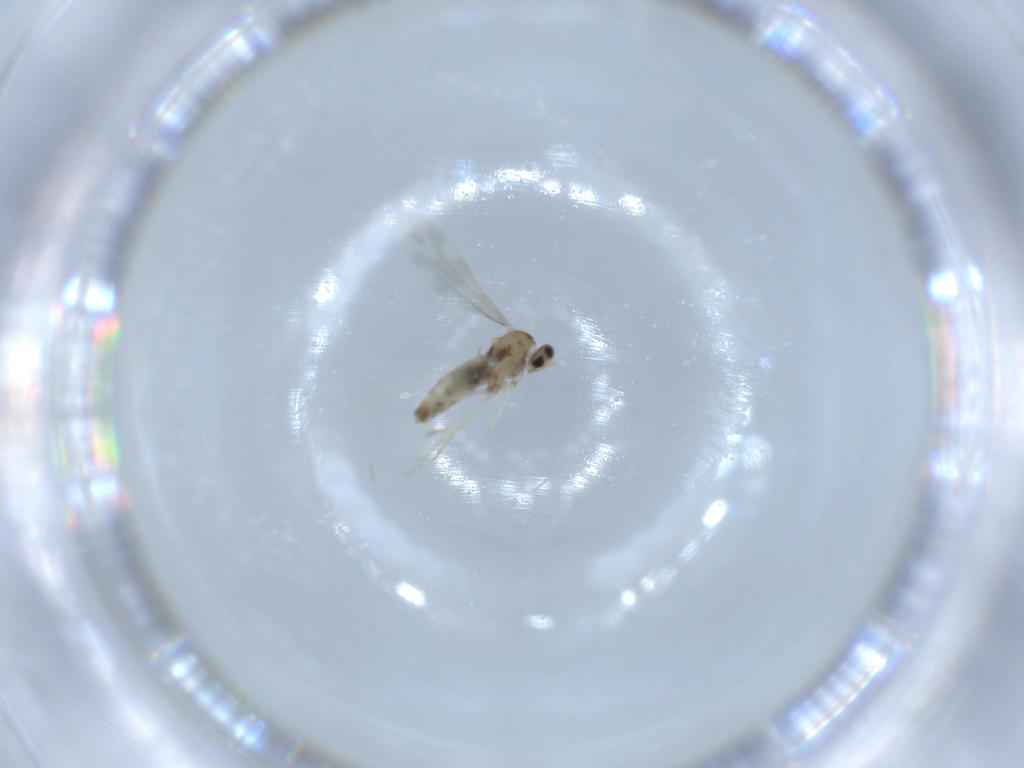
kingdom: Animalia
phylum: Arthropoda
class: Insecta
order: Diptera
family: Cecidomyiidae
